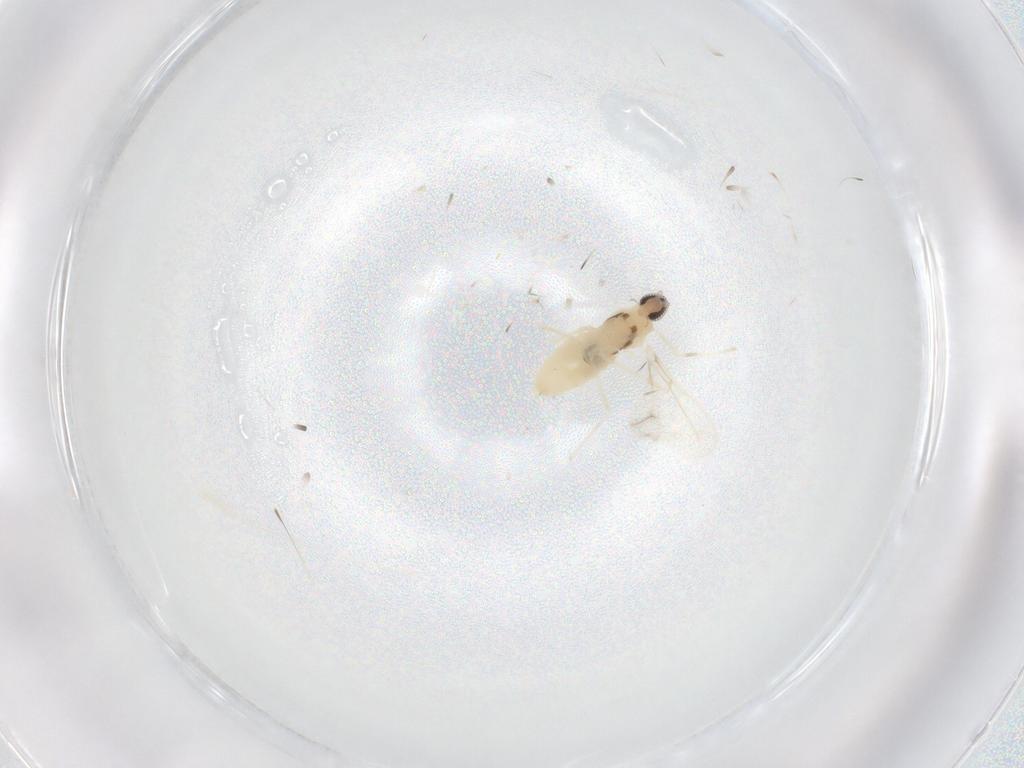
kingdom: Animalia
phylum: Arthropoda
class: Insecta
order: Diptera
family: Cecidomyiidae
